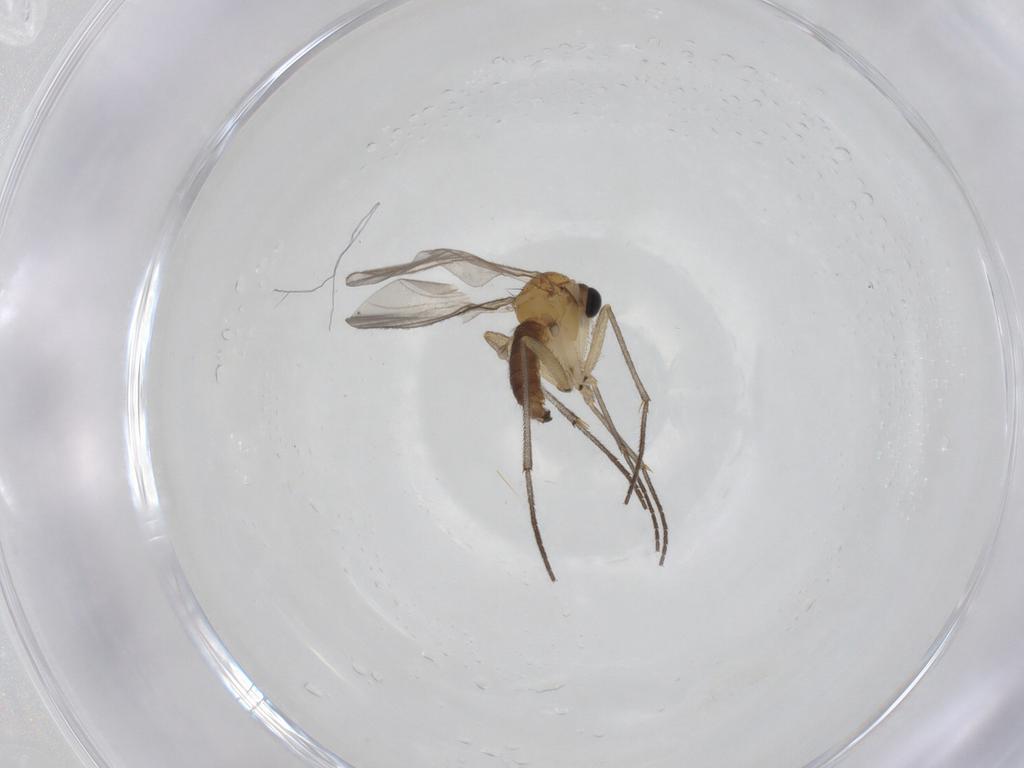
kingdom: Animalia
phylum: Arthropoda
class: Insecta
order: Diptera
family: Sciaridae
